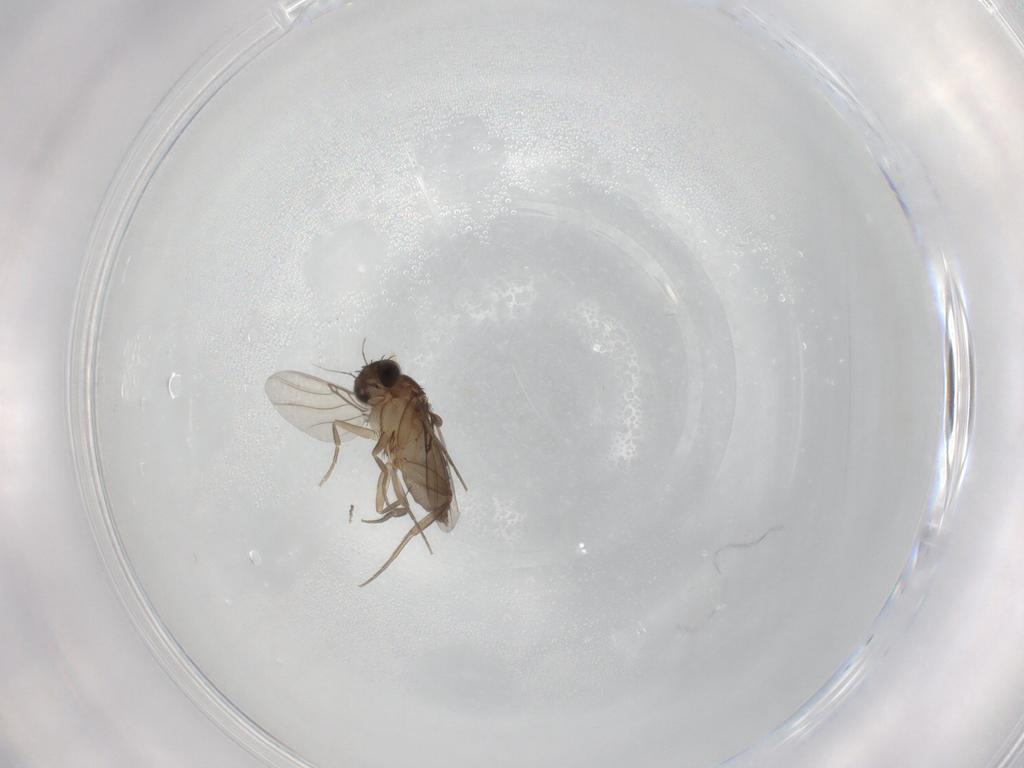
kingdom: Animalia
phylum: Arthropoda
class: Insecta
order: Diptera
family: Phoridae
